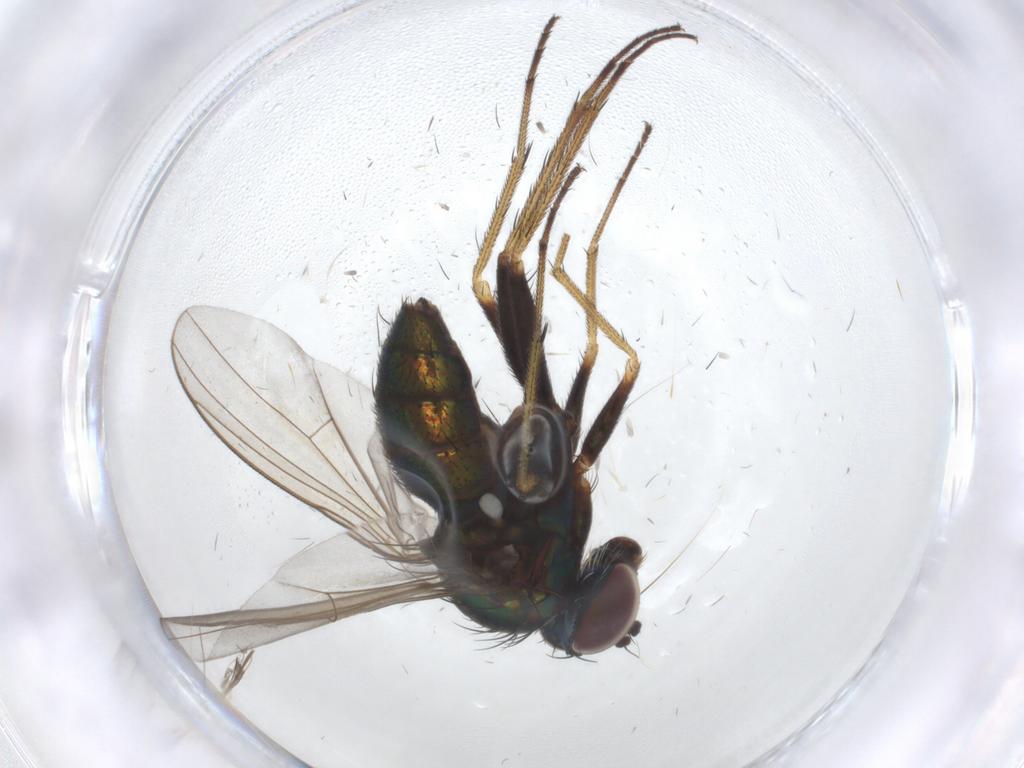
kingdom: Animalia
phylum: Arthropoda
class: Insecta
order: Diptera
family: Dolichopodidae
